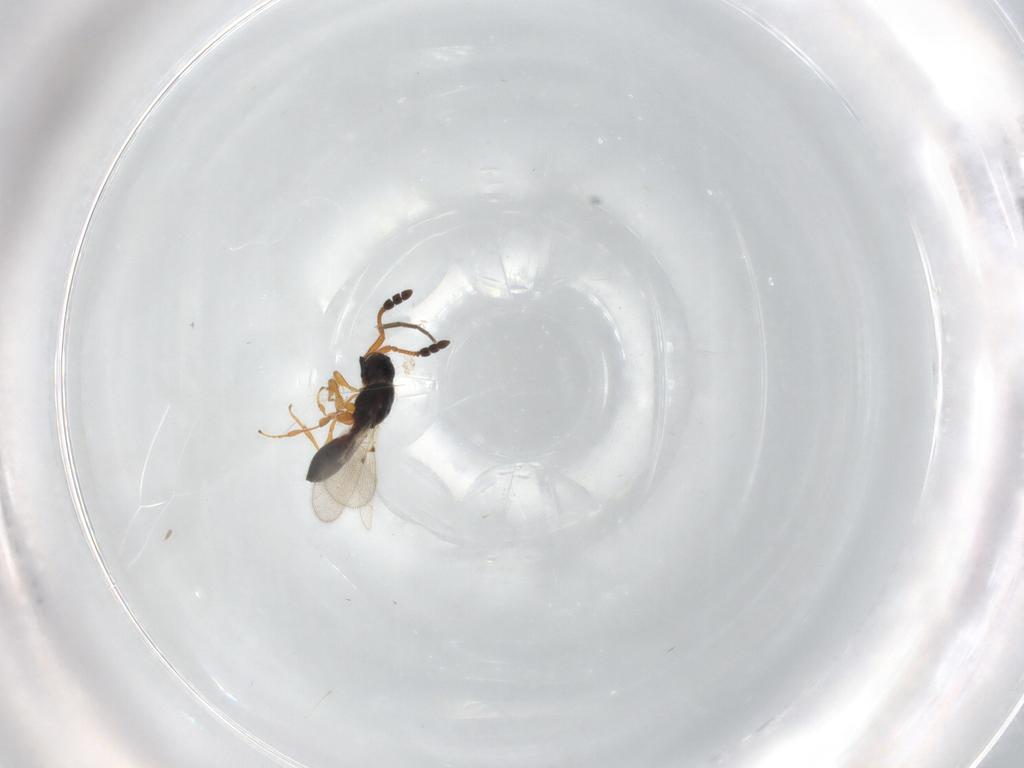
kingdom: Animalia
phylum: Arthropoda
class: Insecta
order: Hymenoptera
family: Diapriidae
